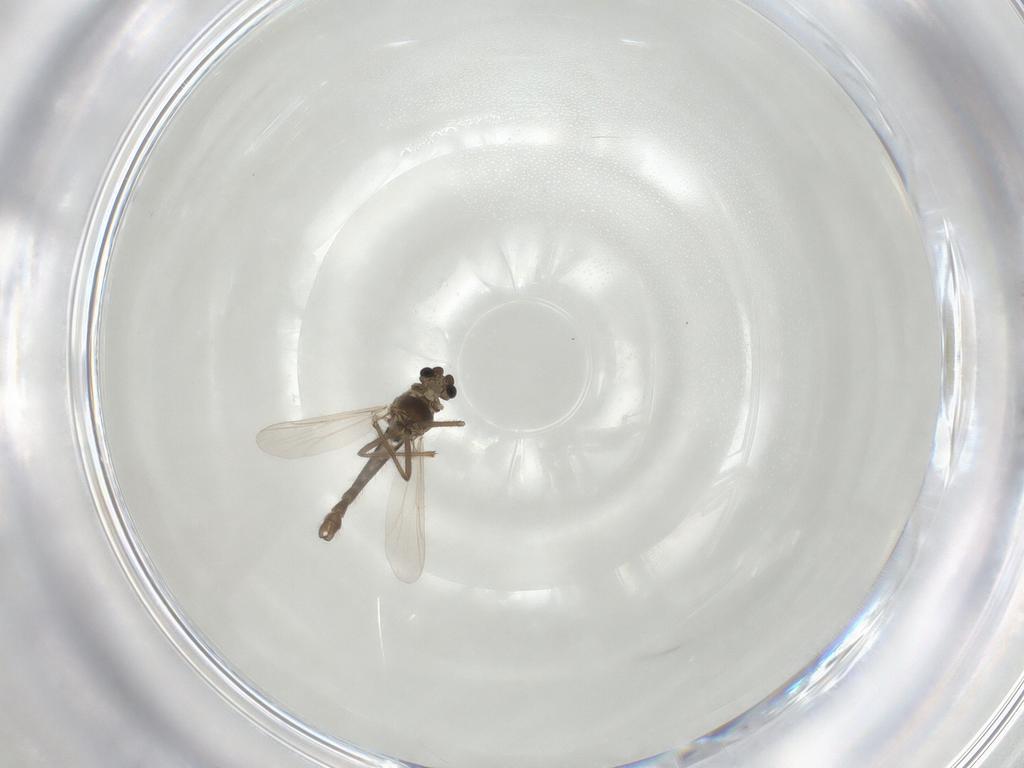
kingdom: Animalia
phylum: Arthropoda
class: Insecta
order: Diptera
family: Chironomidae
